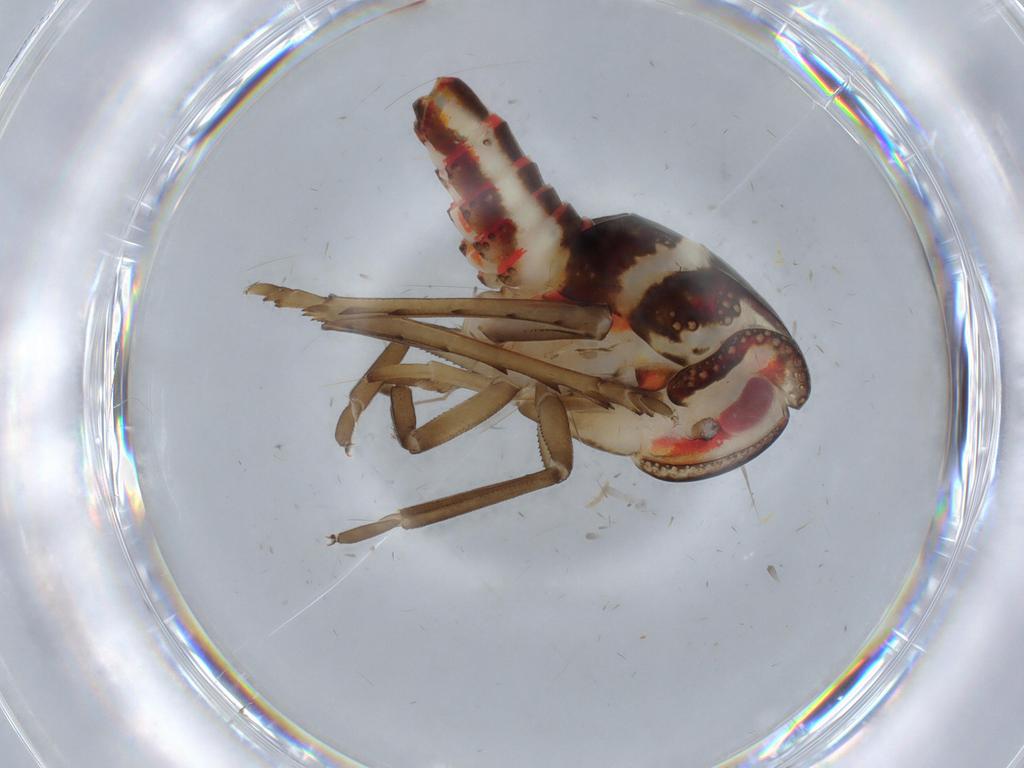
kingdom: Animalia
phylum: Arthropoda
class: Insecta
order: Hemiptera
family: Nogodinidae
